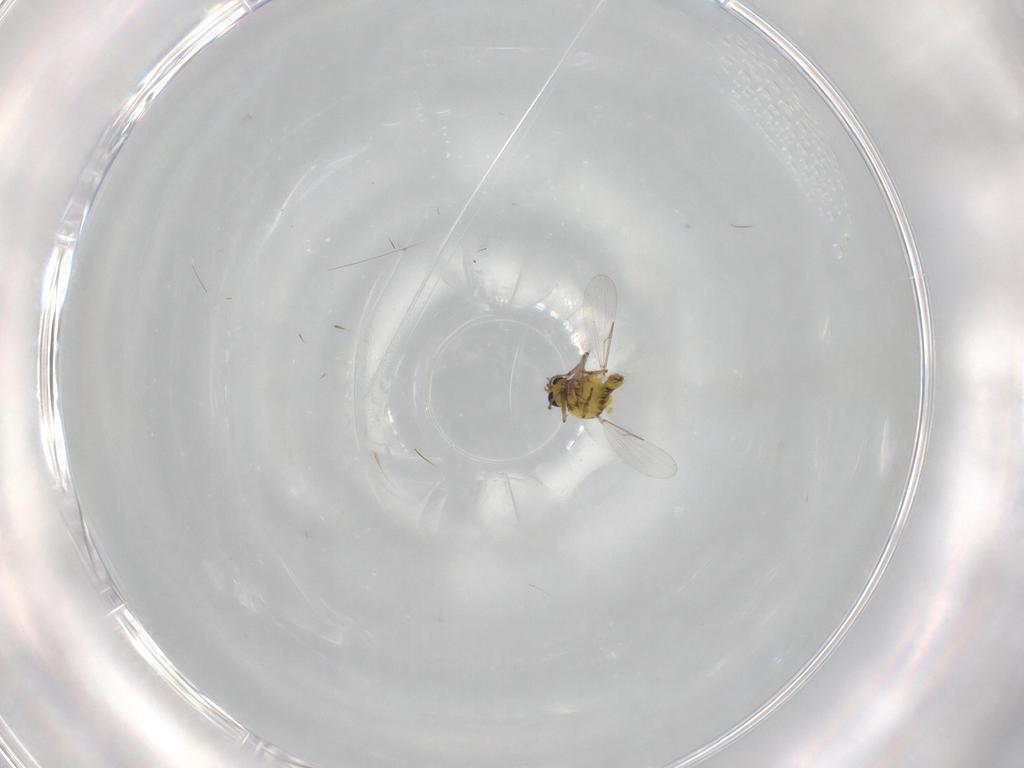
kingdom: Animalia
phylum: Arthropoda
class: Insecta
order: Diptera
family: Ceratopogonidae
